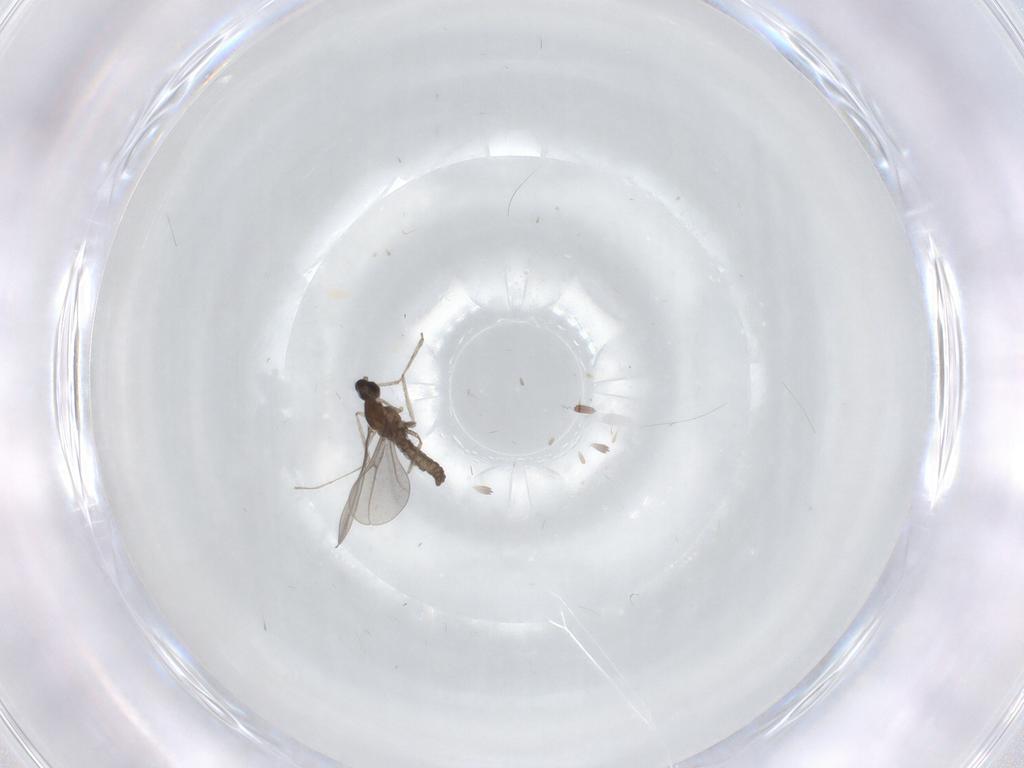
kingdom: Animalia
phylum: Arthropoda
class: Insecta
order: Diptera
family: Cecidomyiidae
